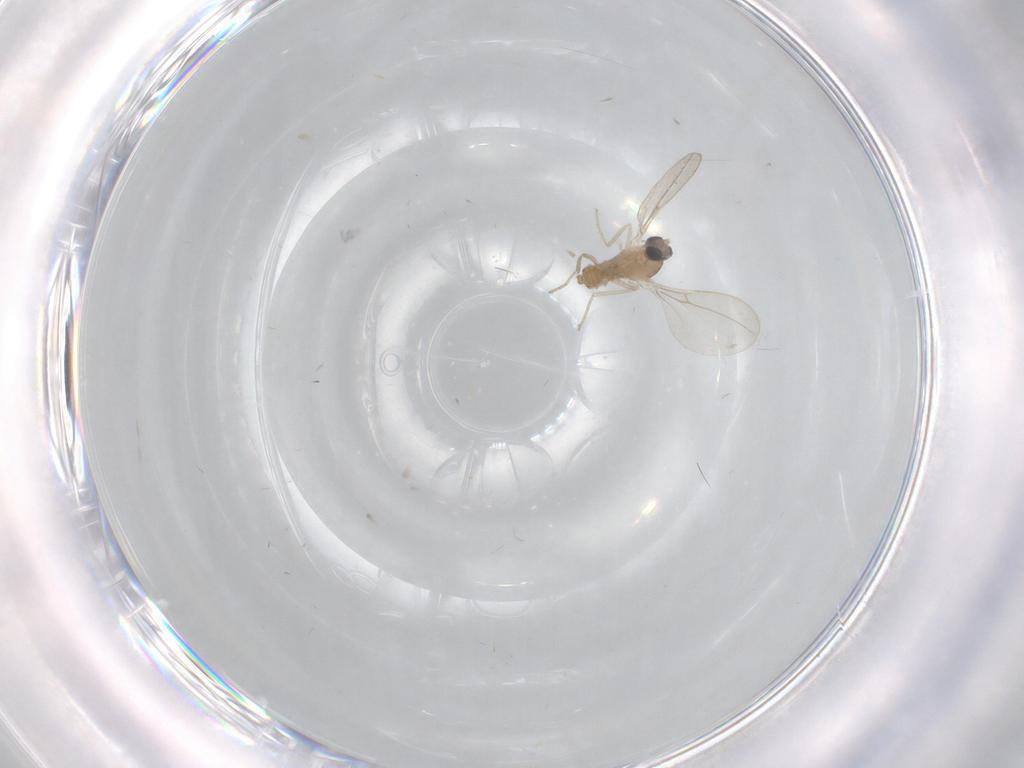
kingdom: Animalia
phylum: Arthropoda
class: Insecta
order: Diptera
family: Cecidomyiidae
